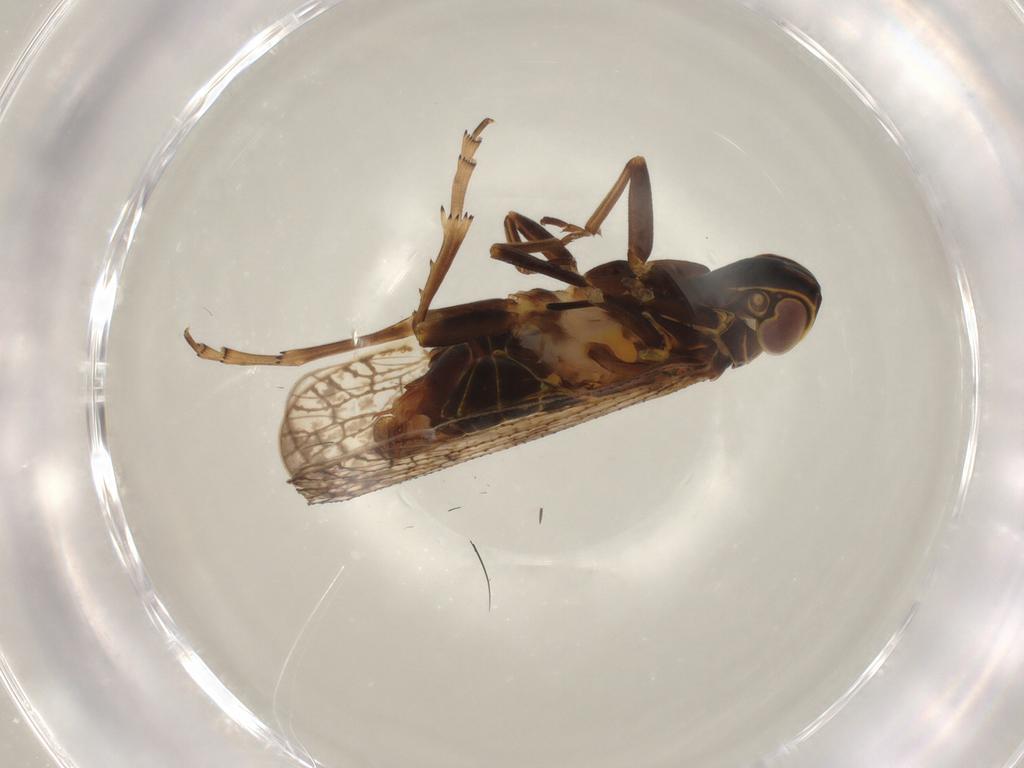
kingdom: Animalia
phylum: Arthropoda
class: Insecta
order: Hemiptera
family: Cixiidae
